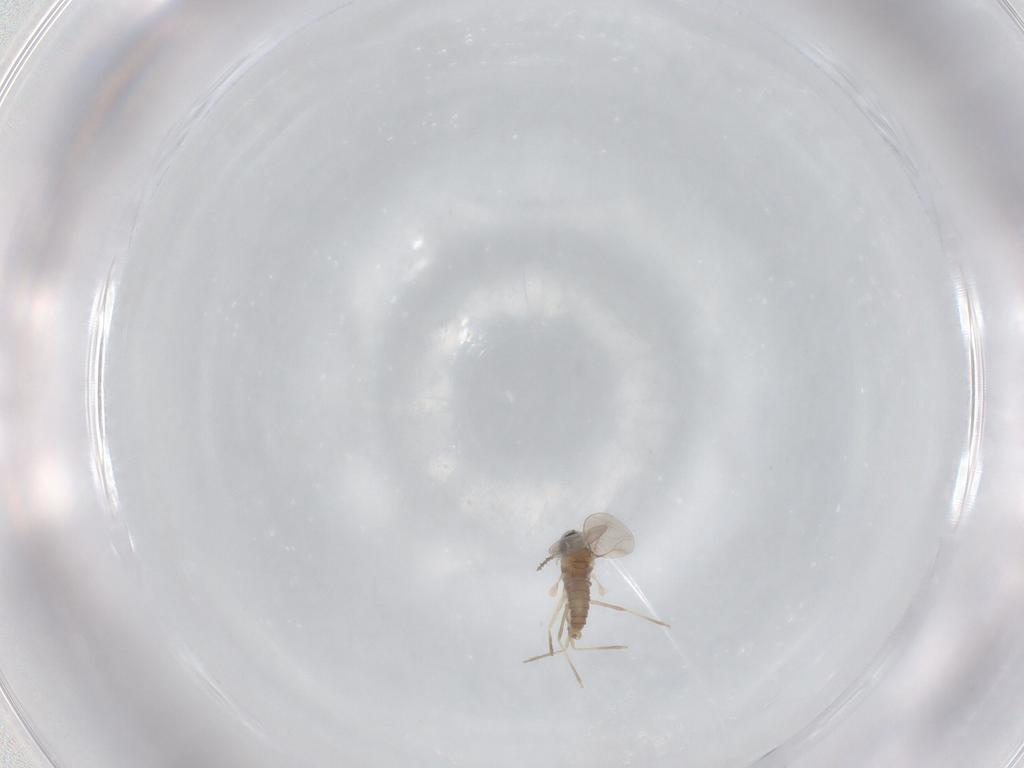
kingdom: Animalia
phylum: Arthropoda
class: Insecta
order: Diptera
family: Cecidomyiidae
